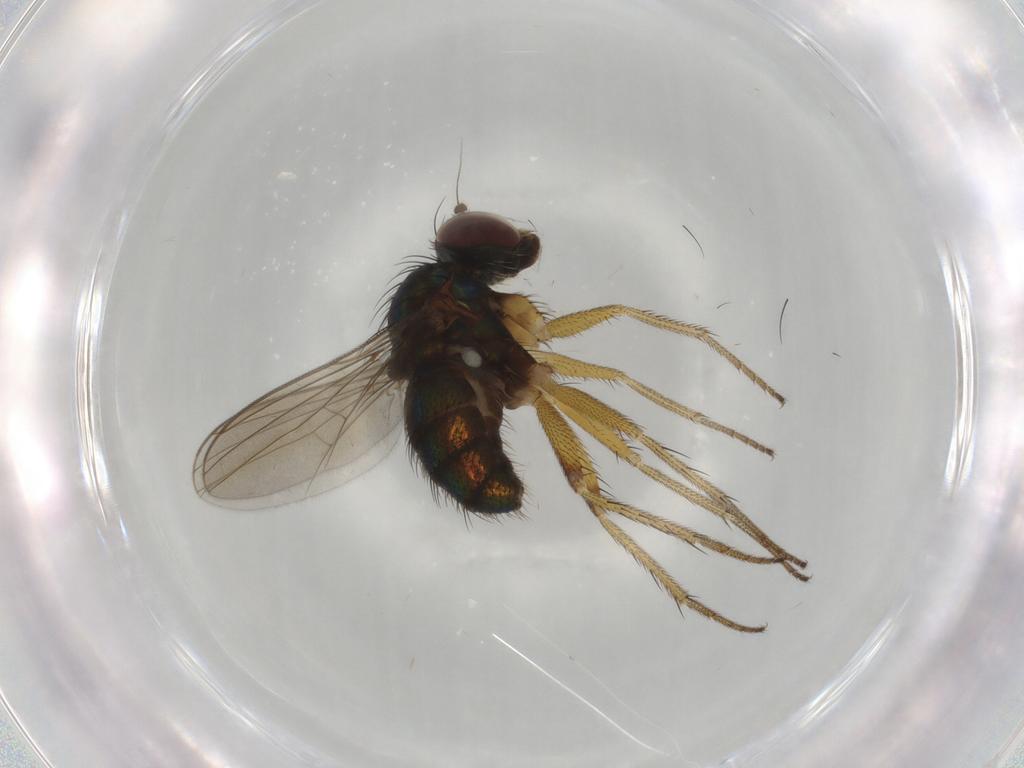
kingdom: Animalia
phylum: Arthropoda
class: Insecta
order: Diptera
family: Dolichopodidae
